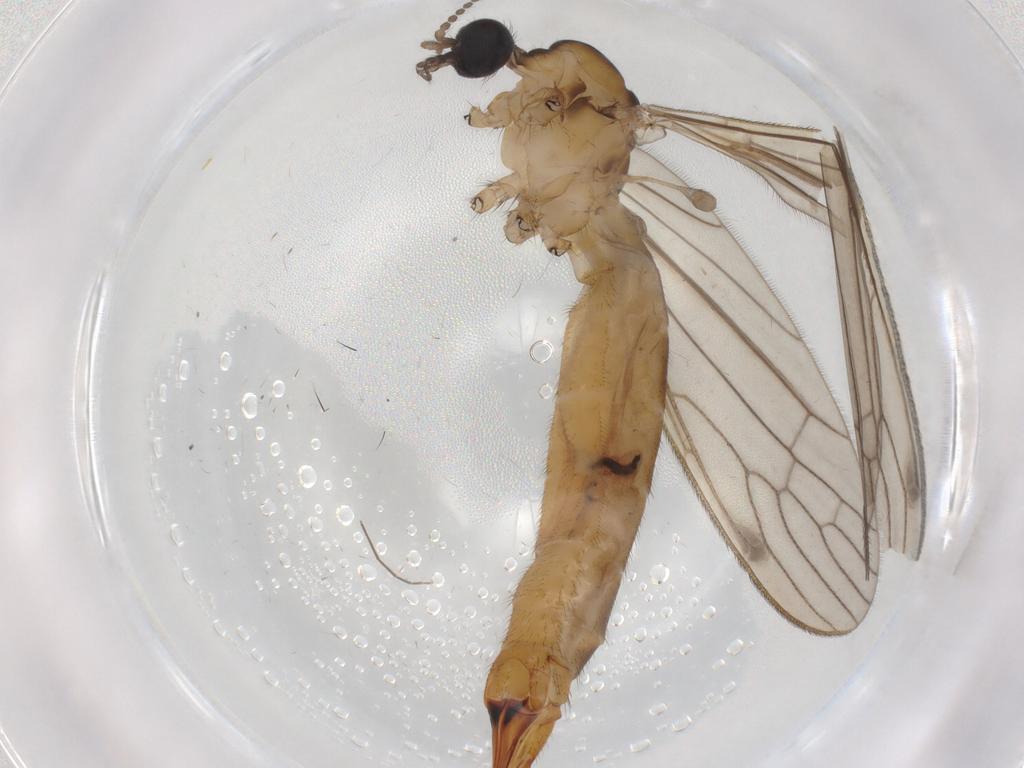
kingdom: Animalia
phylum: Arthropoda
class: Insecta
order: Diptera
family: Limoniidae
